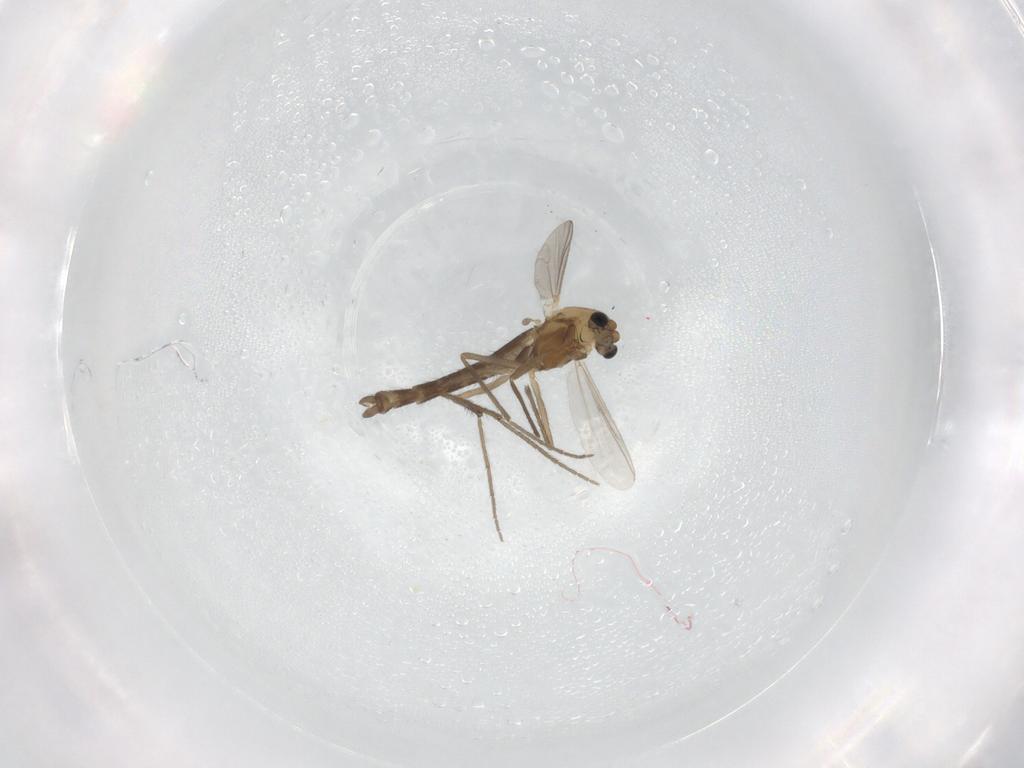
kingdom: Animalia
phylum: Arthropoda
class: Insecta
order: Diptera
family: Chironomidae
